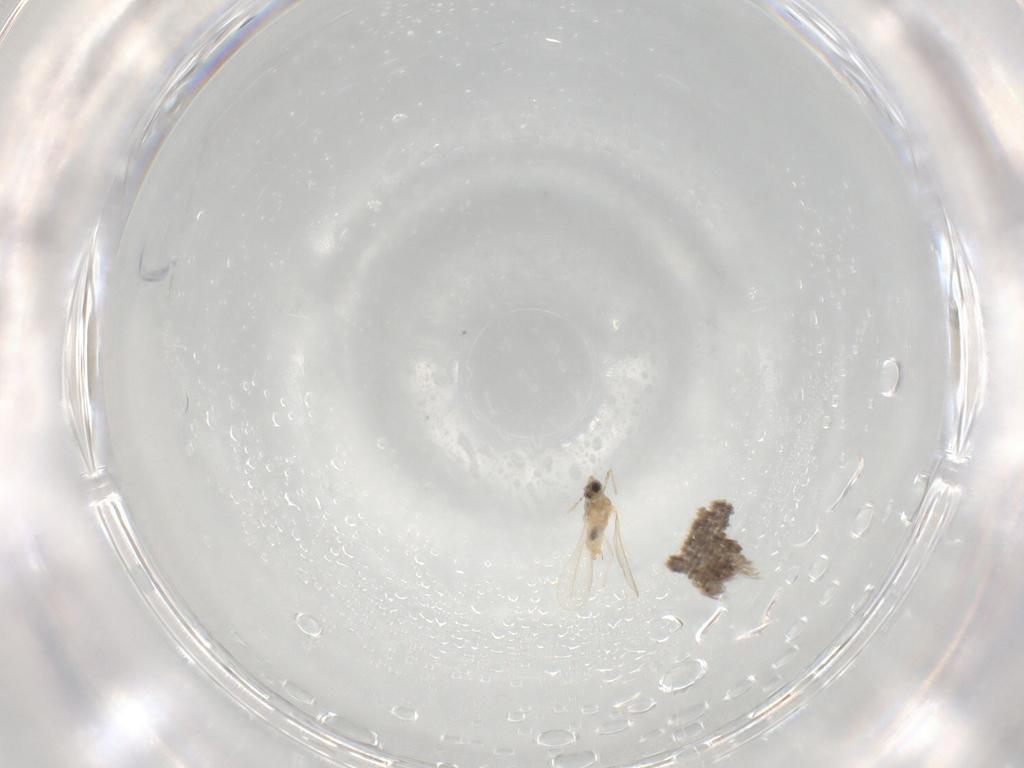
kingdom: Animalia
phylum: Arthropoda
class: Insecta
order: Diptera
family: Cecidomyiidae
